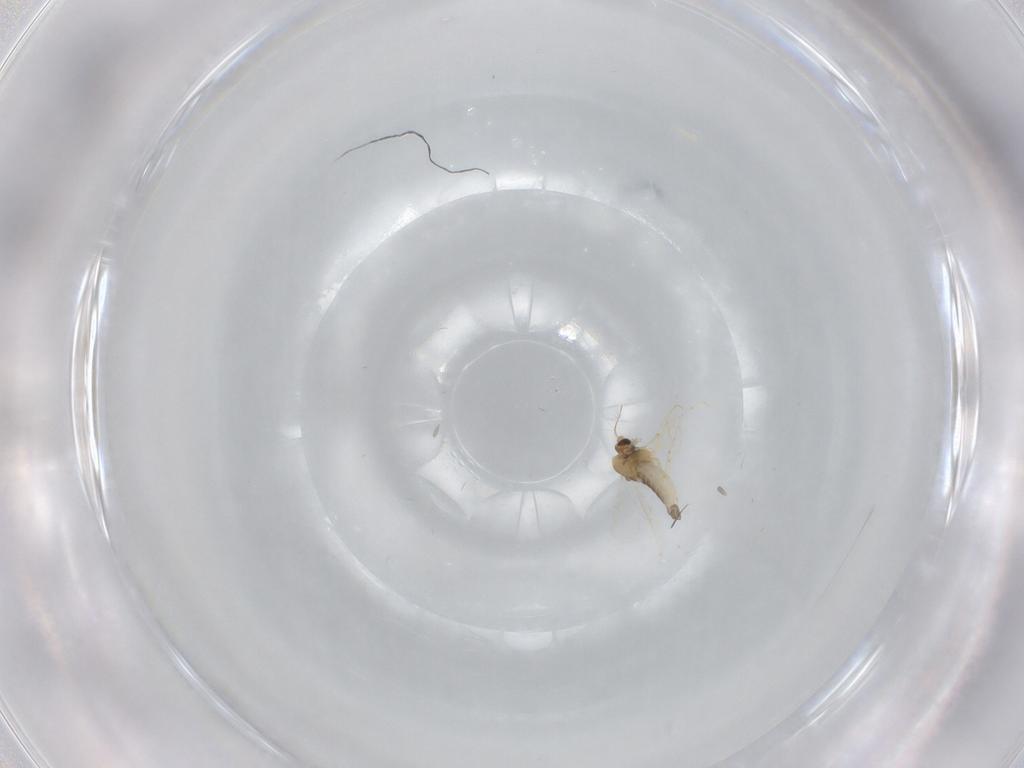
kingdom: Animalia
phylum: Arthropoda
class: Insecta
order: Diptera
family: Chironomidae
